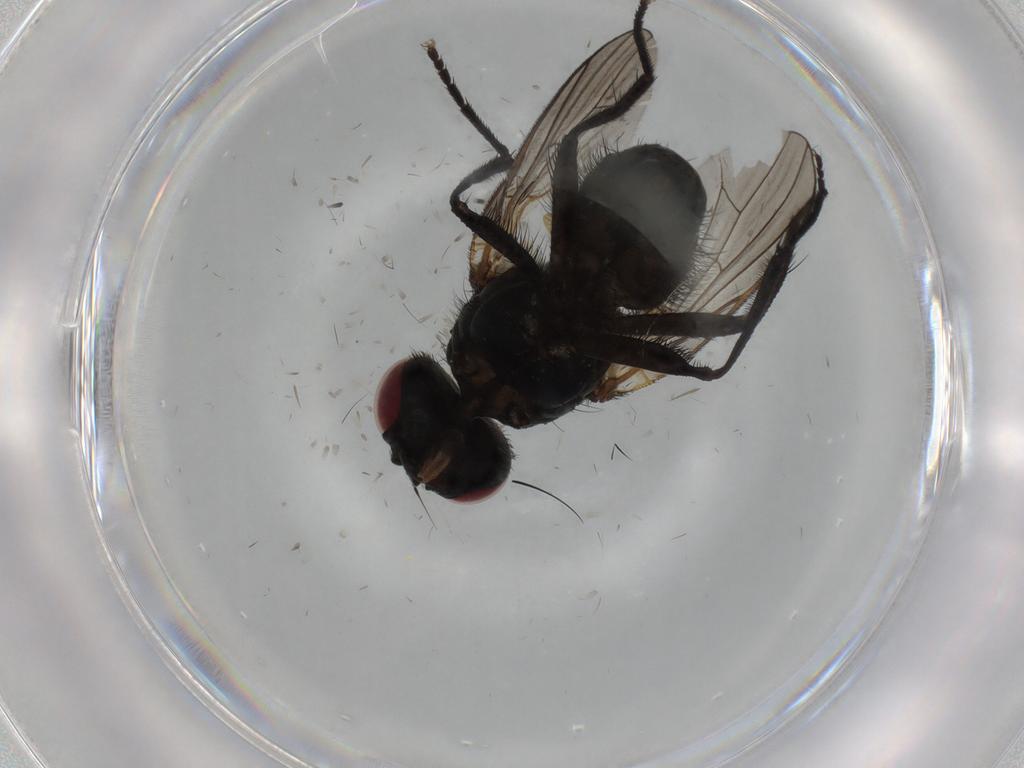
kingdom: Animalia
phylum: Arthropoda
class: Insecta
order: Diptera
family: Fannia
